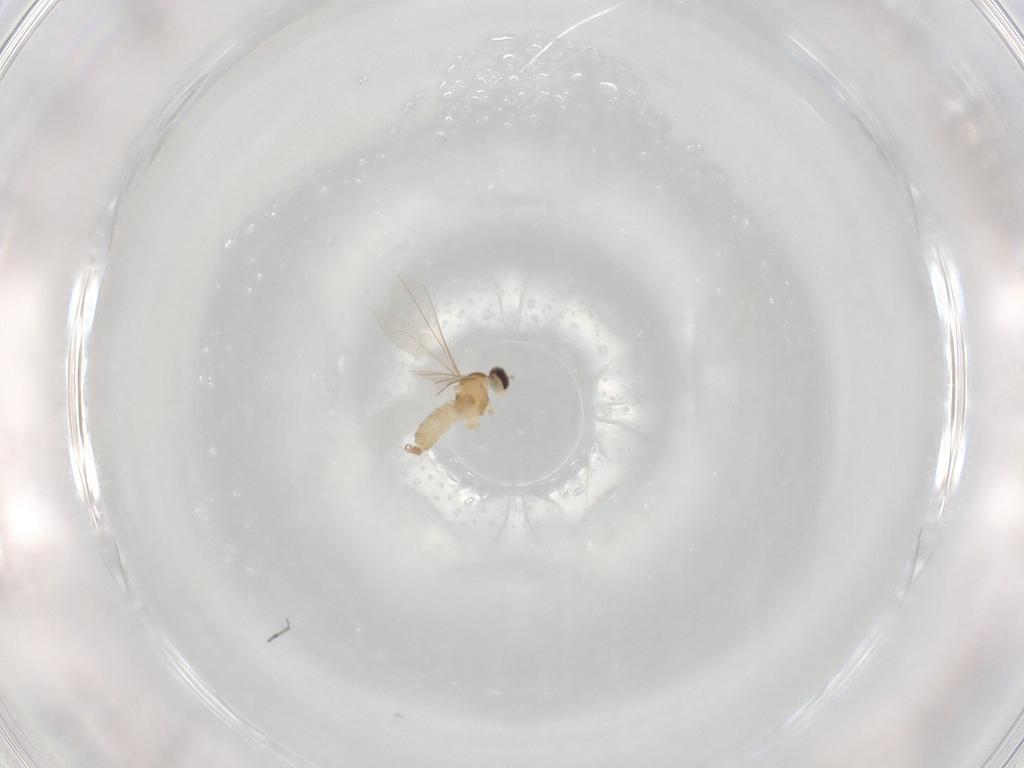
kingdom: Animalia
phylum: Arthropoda
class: Insecta
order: Diptera
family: Cecidomyiidae
